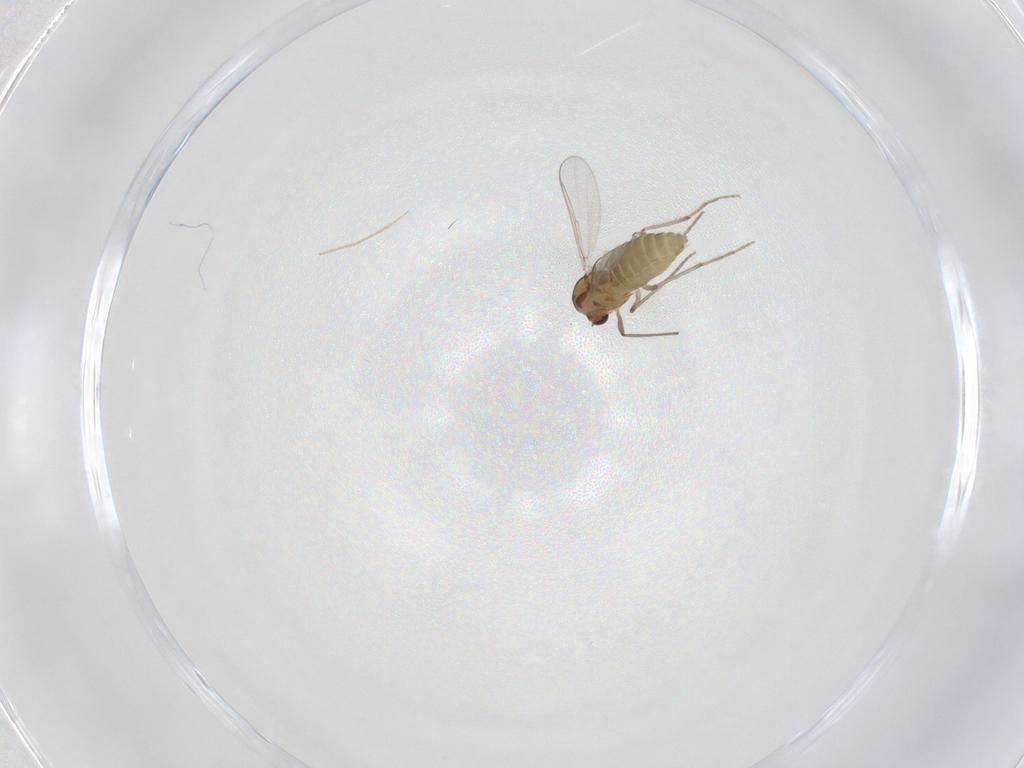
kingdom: Animalia
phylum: Arthropoda
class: Insecta
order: Diptera
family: Chironomidae
